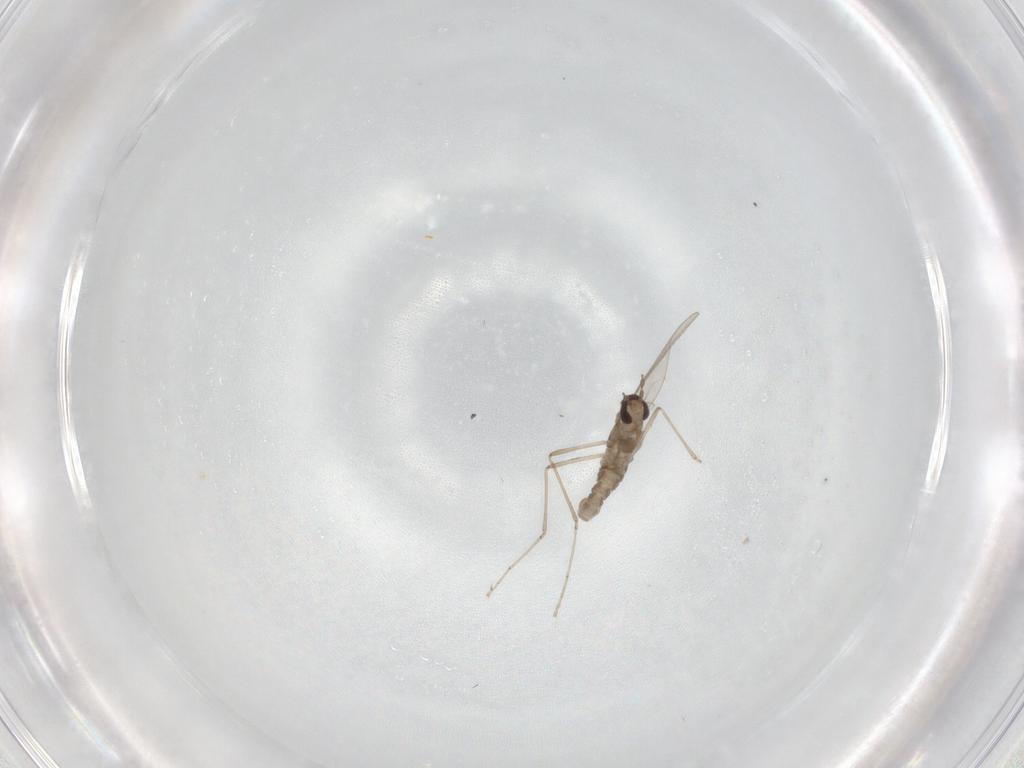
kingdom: Animalia
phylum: Arthropoda
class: Insecta
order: Diptera
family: Cecidomyiidae
